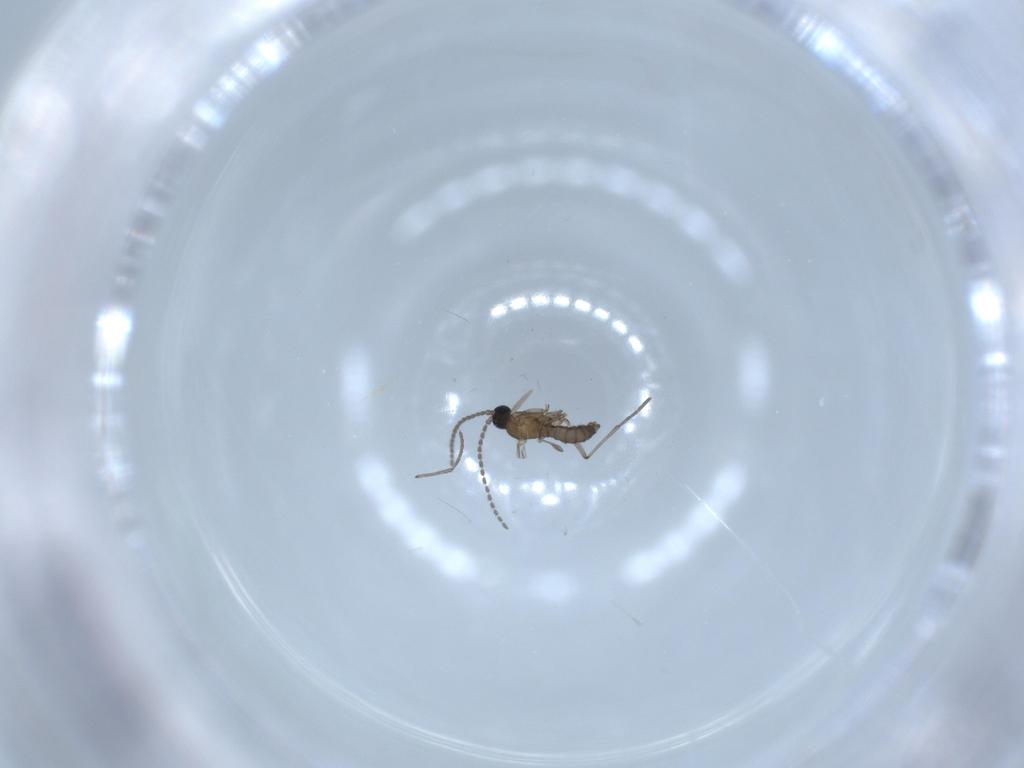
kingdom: Animalia
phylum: Arthropoda
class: Insecta
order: Diptera
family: Sciaridae
